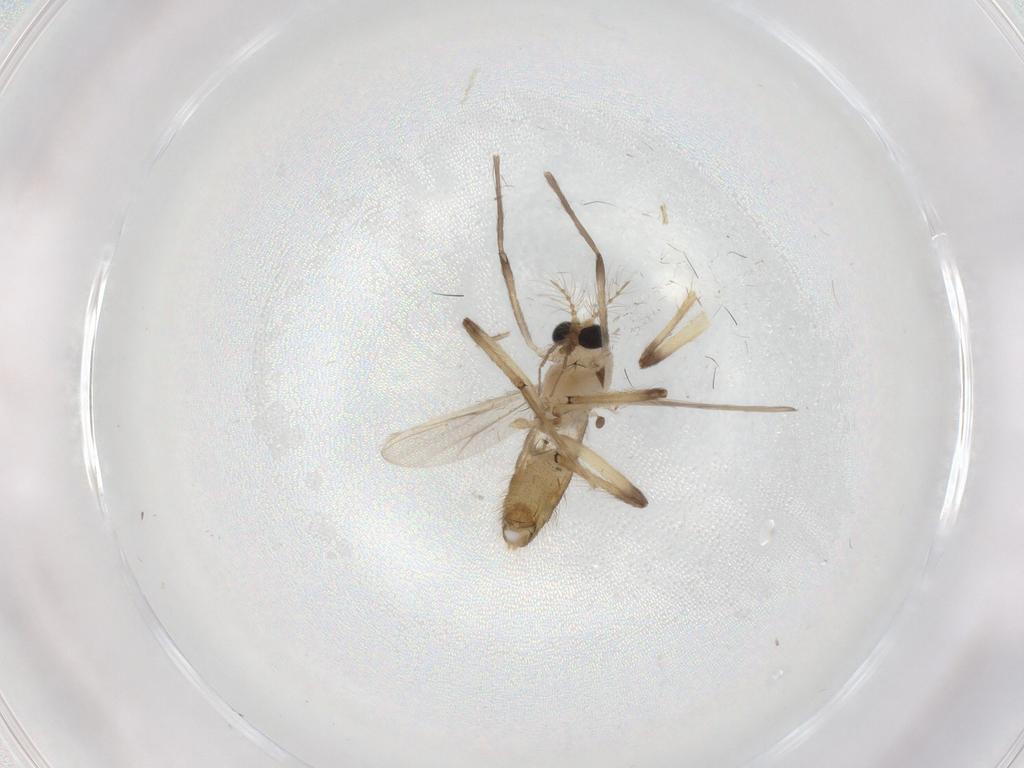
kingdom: Animalia
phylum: Arthropoda
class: Insecta
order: Diptera
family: Chironomidae
